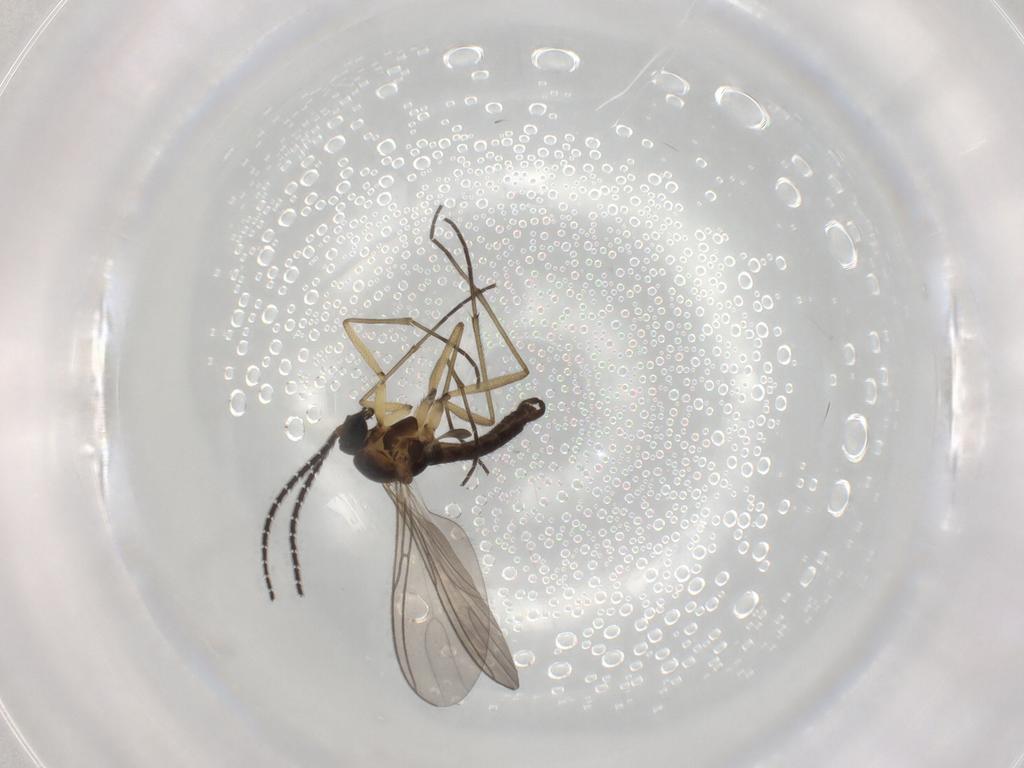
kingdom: Animalia
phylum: Arthropoda
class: Insecta
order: Diptera
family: Sciaridae
